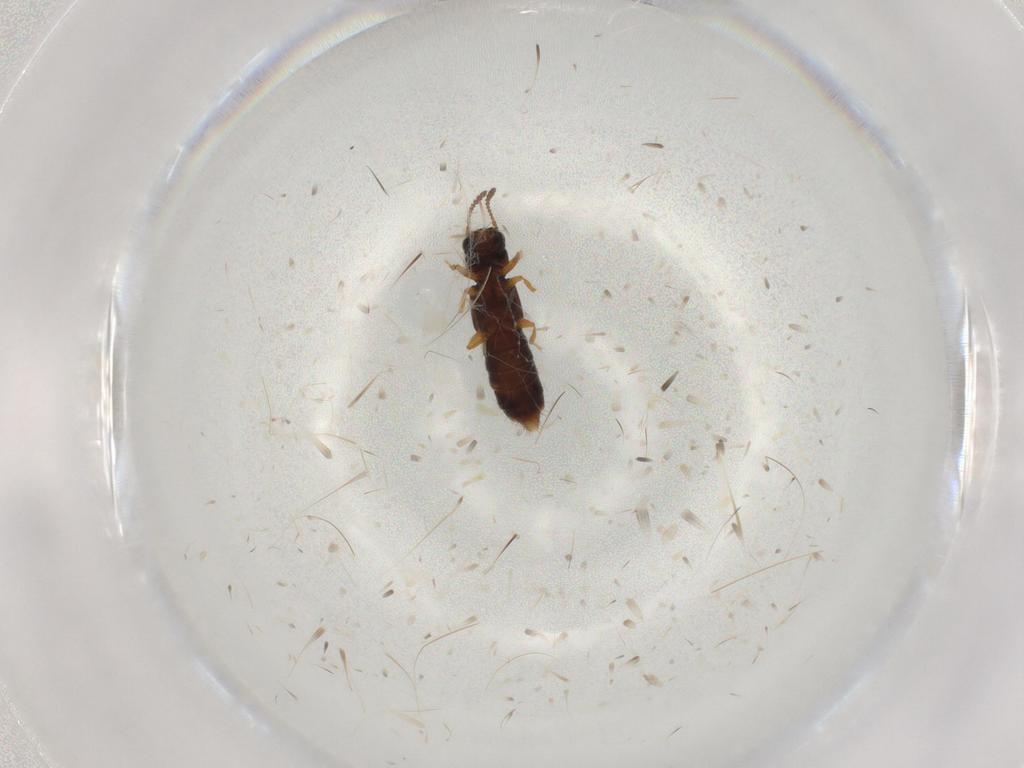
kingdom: Animalia
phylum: Arthropoda
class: Insecta
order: Coleoptera
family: Staphylinidae
